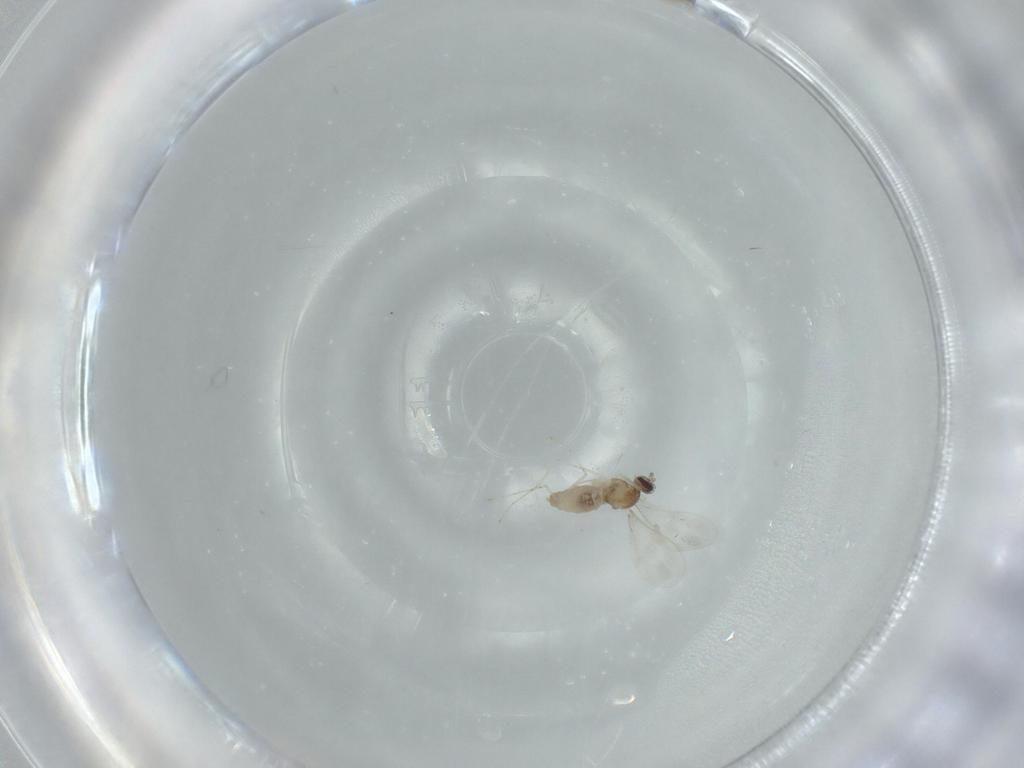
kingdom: Animalia
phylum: Arthropoda
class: Insecta
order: Diptera
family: Cecidomyiidae
